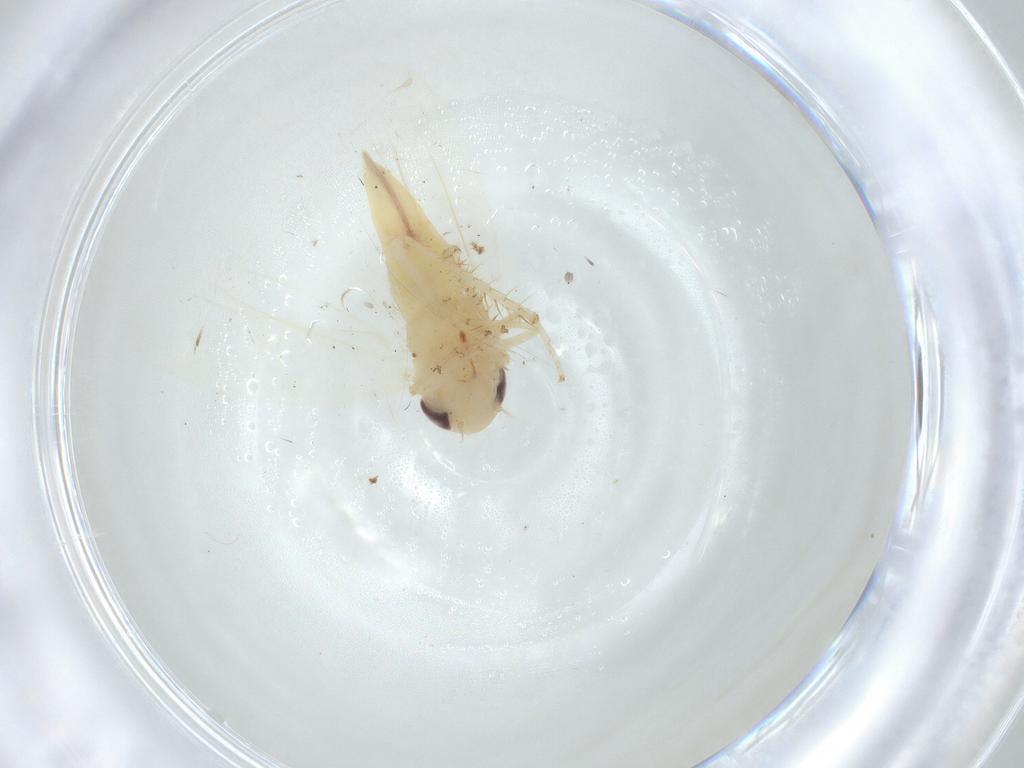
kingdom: Animalia
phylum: Arthropoda
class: Insecta
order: Hemiptera
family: Cicadellidae
